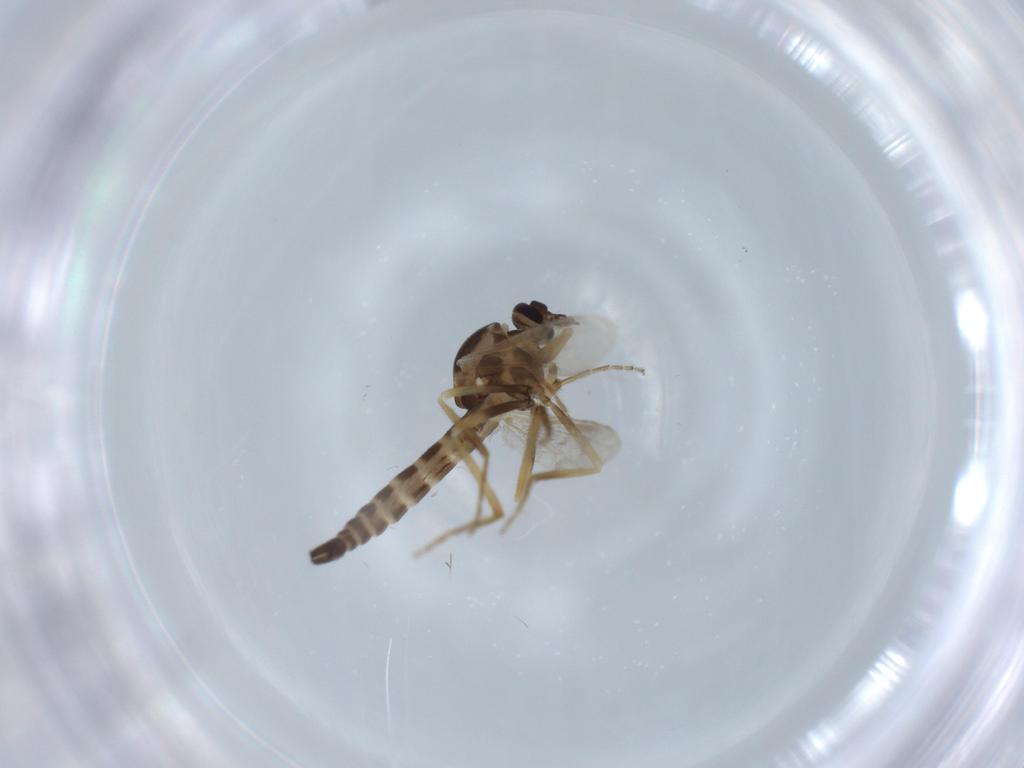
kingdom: Animalia
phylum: Arthropoda
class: Insecta
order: Diptera
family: Ceratopogonidae
